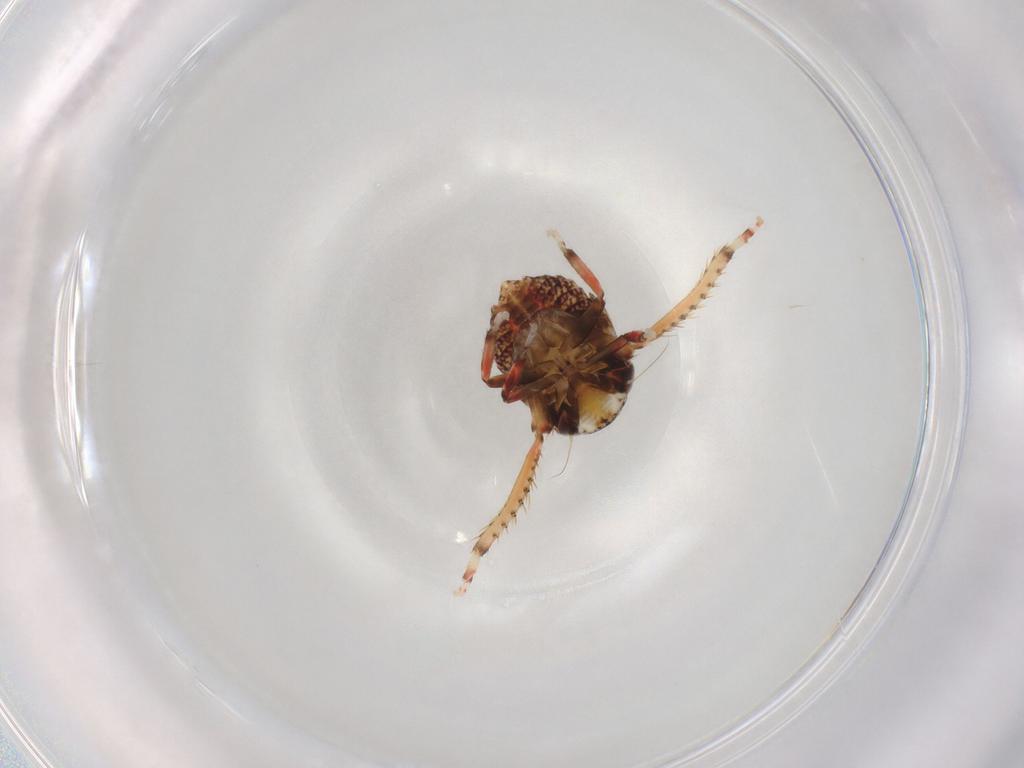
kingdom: Animalia
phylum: Arthropoda
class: Insecta
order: Hemiptera
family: Cicadellidae
